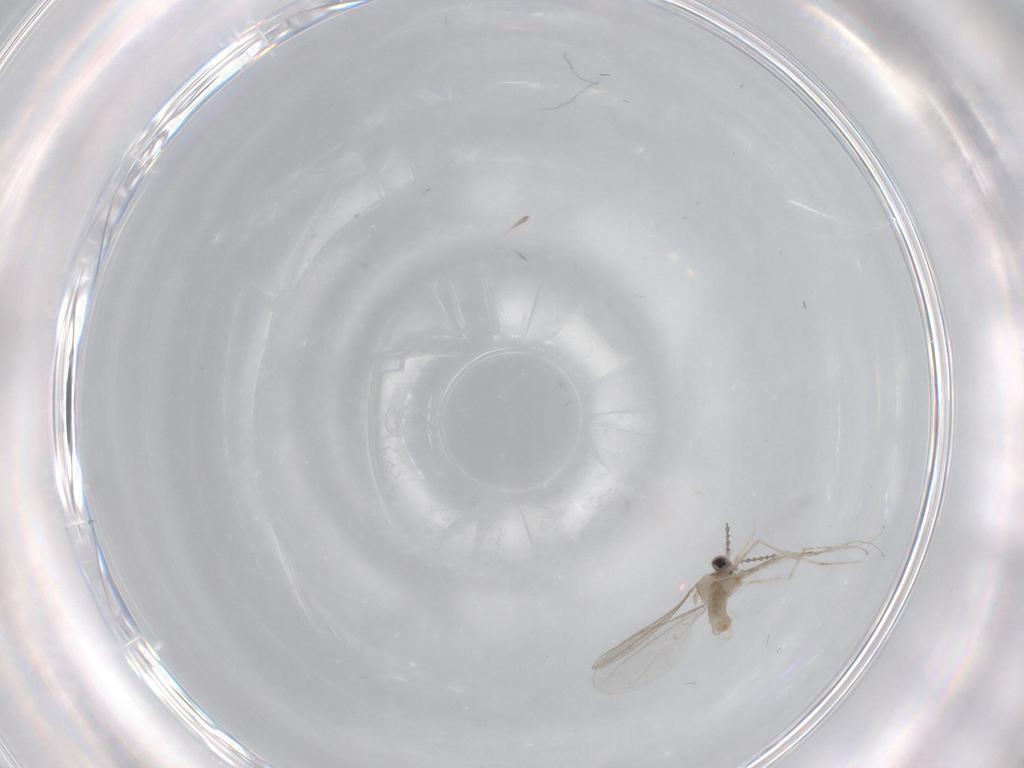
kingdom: Animalia
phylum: Arthropoda
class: Insecta
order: Diptera
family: Cecidomyiidae
